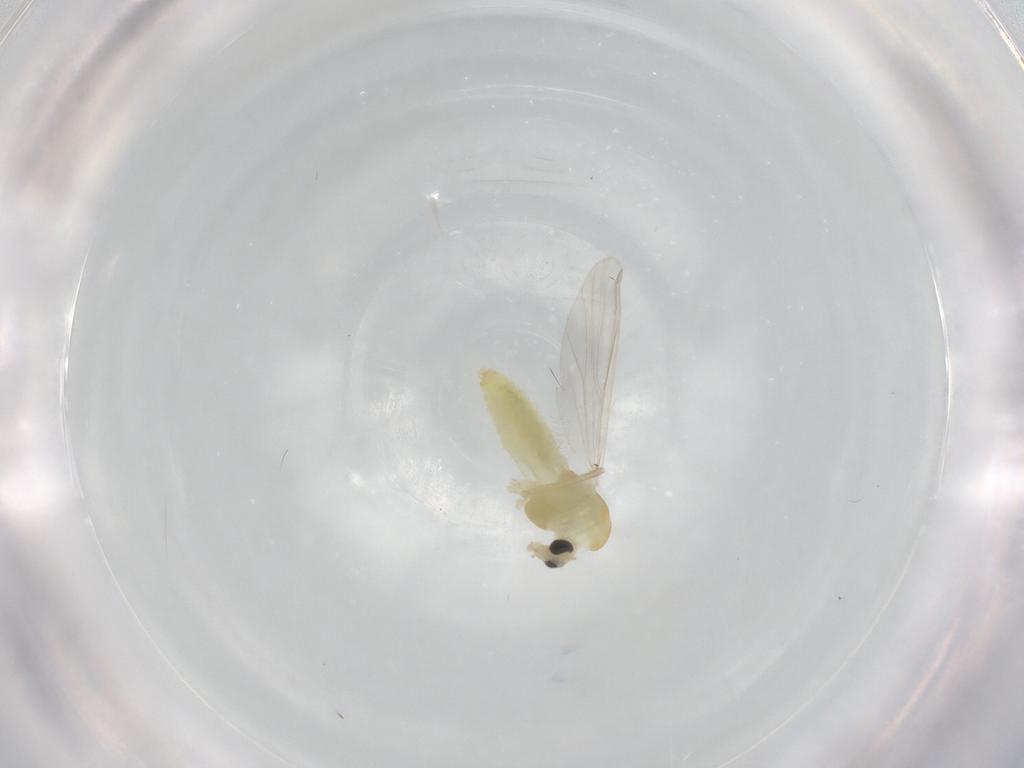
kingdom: Animalia
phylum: Arthropoda
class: Insecta
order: Diptera
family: Chironomidae
